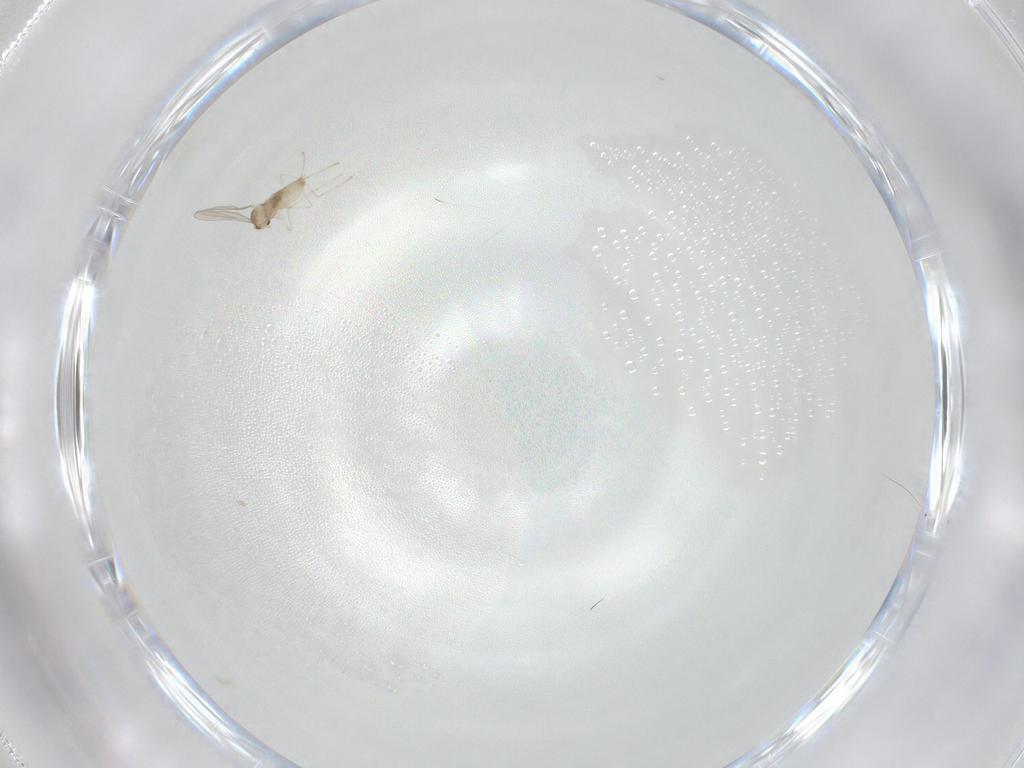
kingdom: Animalia
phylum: Arthropoda
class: Insecta
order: Diptera
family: Cecidomyiidae
